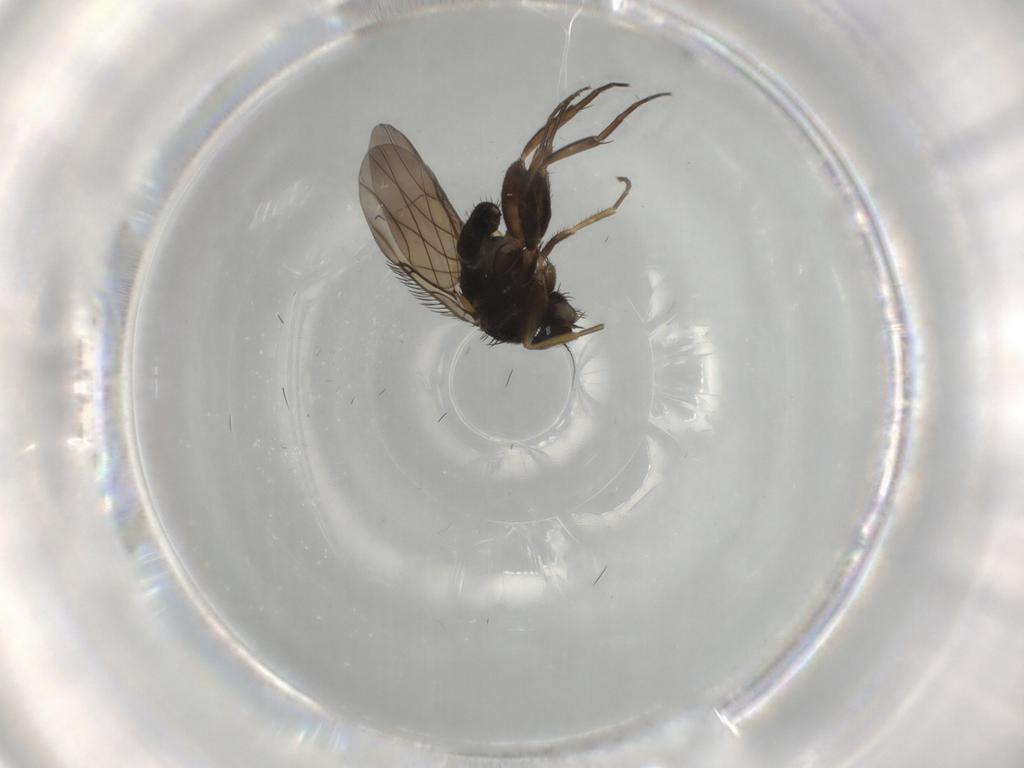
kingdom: Animalia
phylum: Arthropoda
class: Insecta
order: Diptera
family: Phoridae
